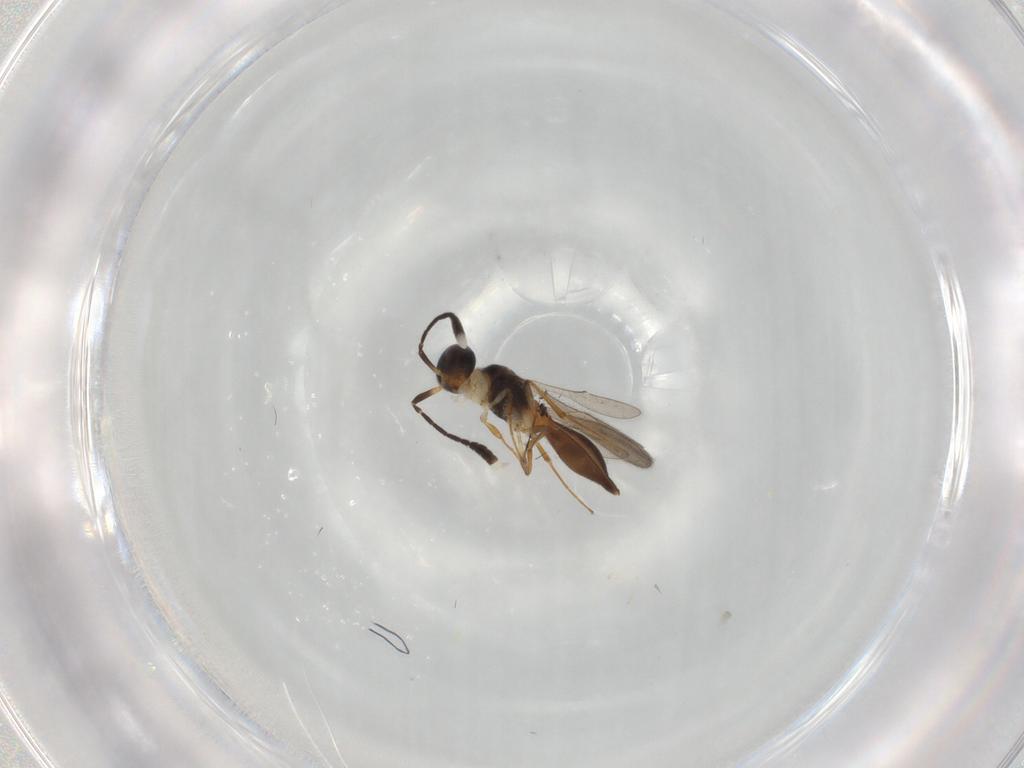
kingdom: Animalia
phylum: Arthropoda
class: Insecta
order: Hymenoptera
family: Scelionidae
